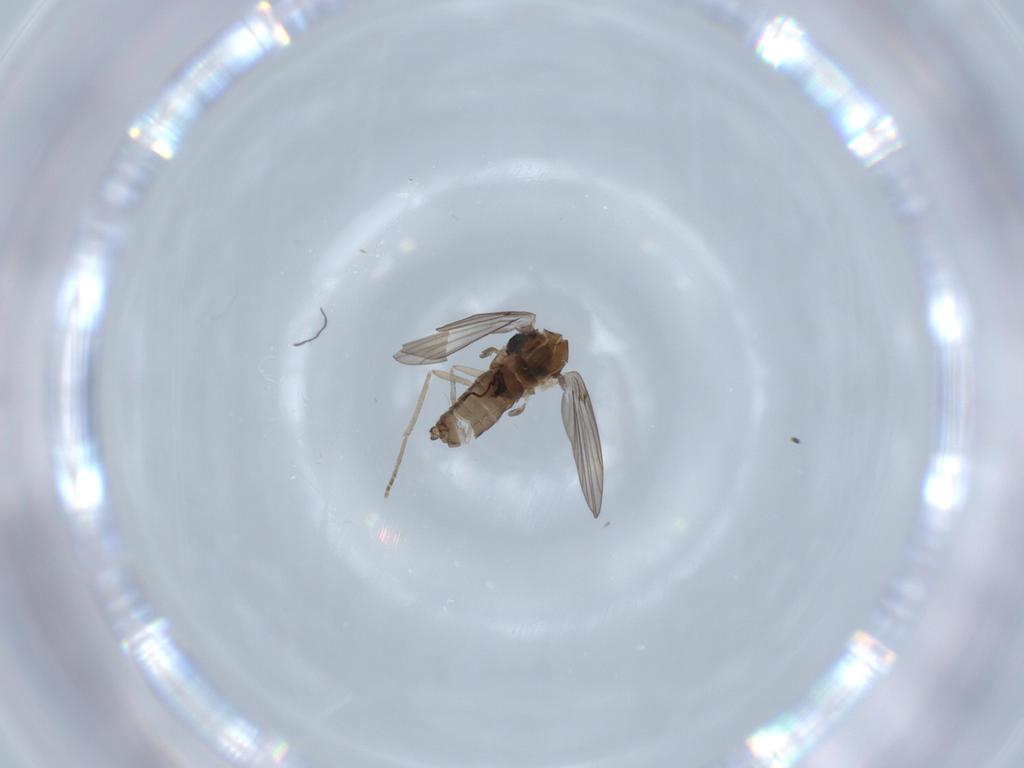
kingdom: Animalia
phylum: Arthropoda
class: Insecta
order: Diptera
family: Psychodidae
